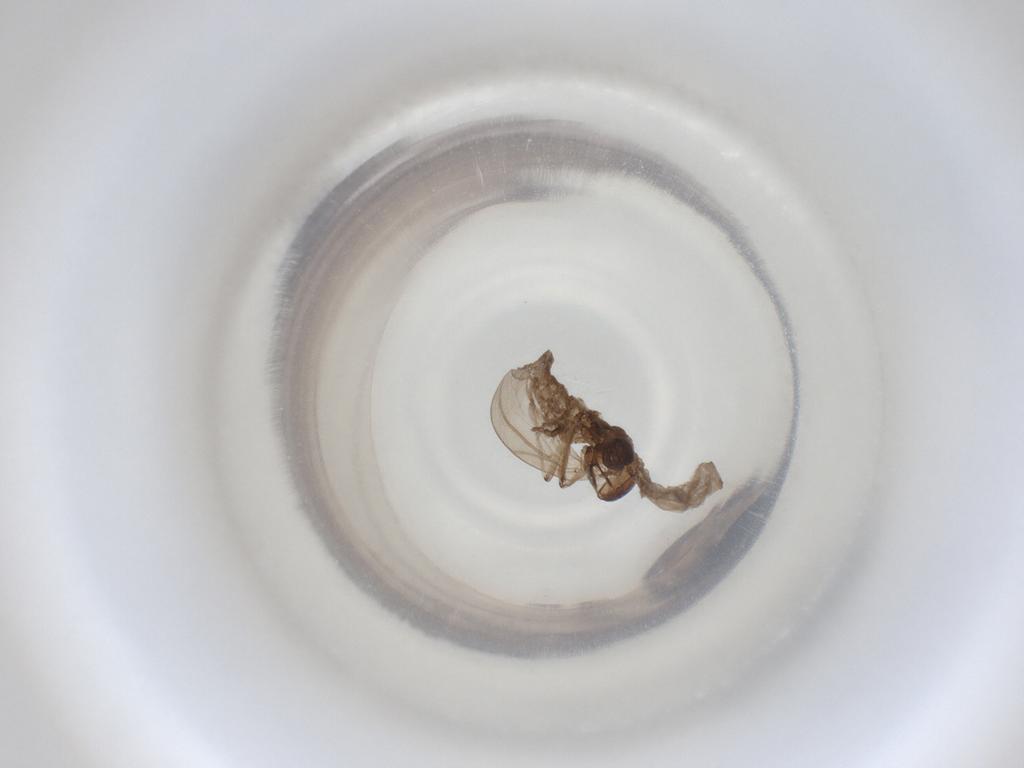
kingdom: Animalia
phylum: Arthropoda
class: Insecta
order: Diptera
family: Cecidomyiidae
